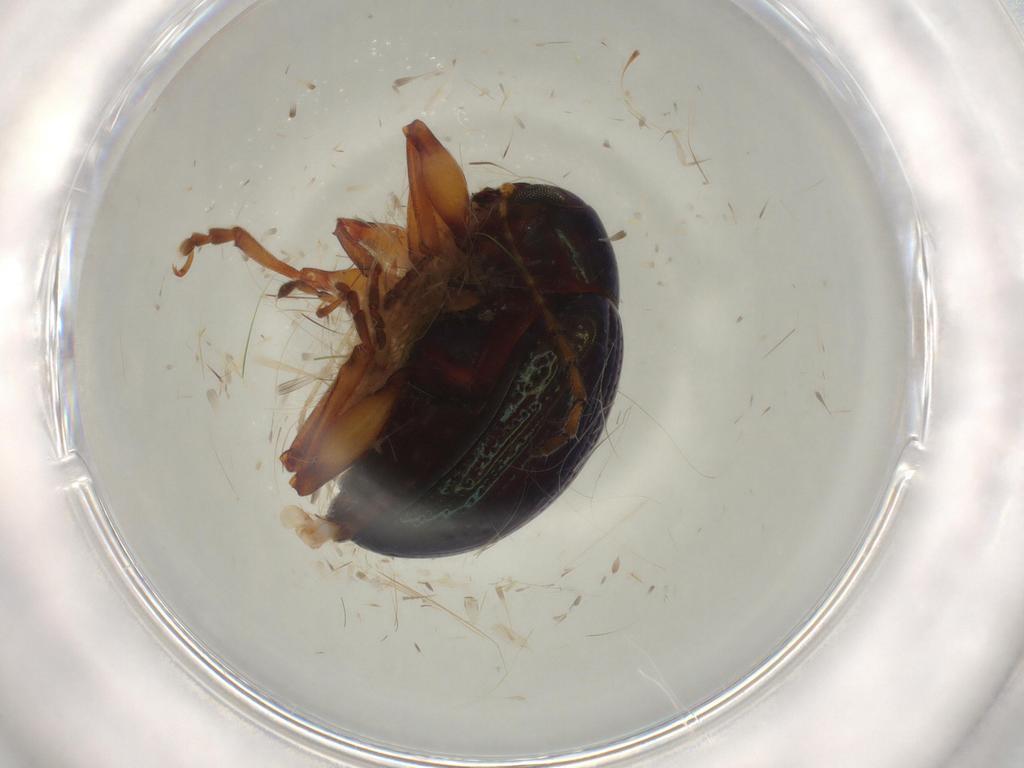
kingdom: Animalia
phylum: Arthropoda
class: Insecta
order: Coleoptera
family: Chrysomelidae
